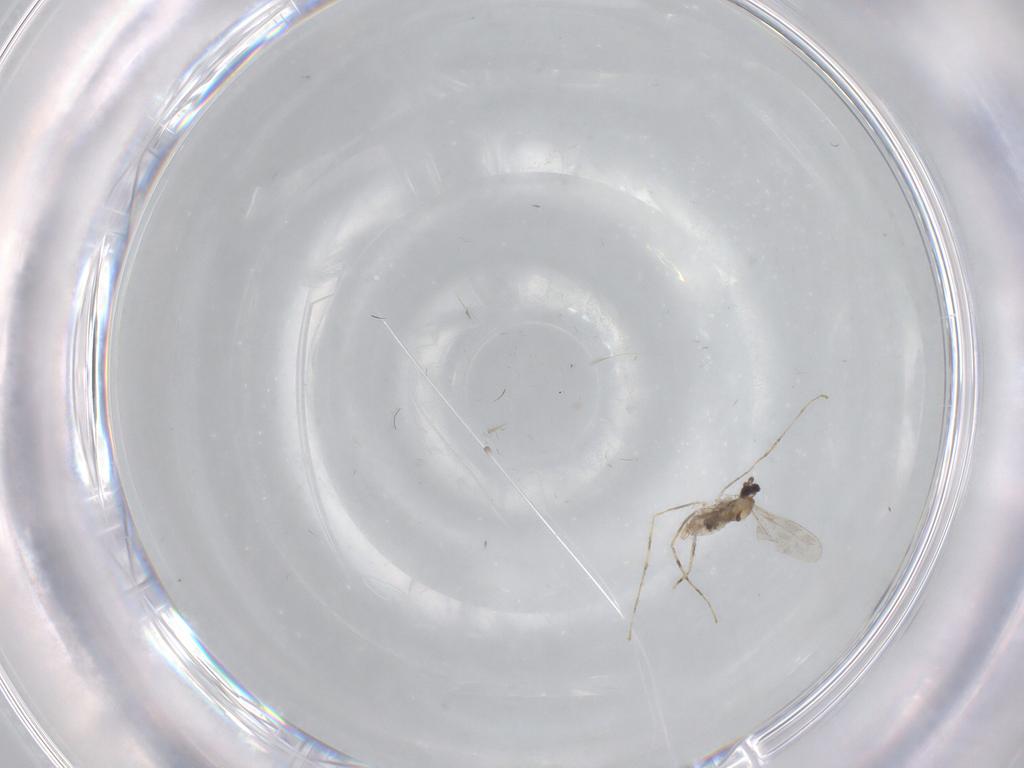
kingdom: Animalia
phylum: Arthropoda
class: Insecta
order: Diptera
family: Cecidomyiidae
